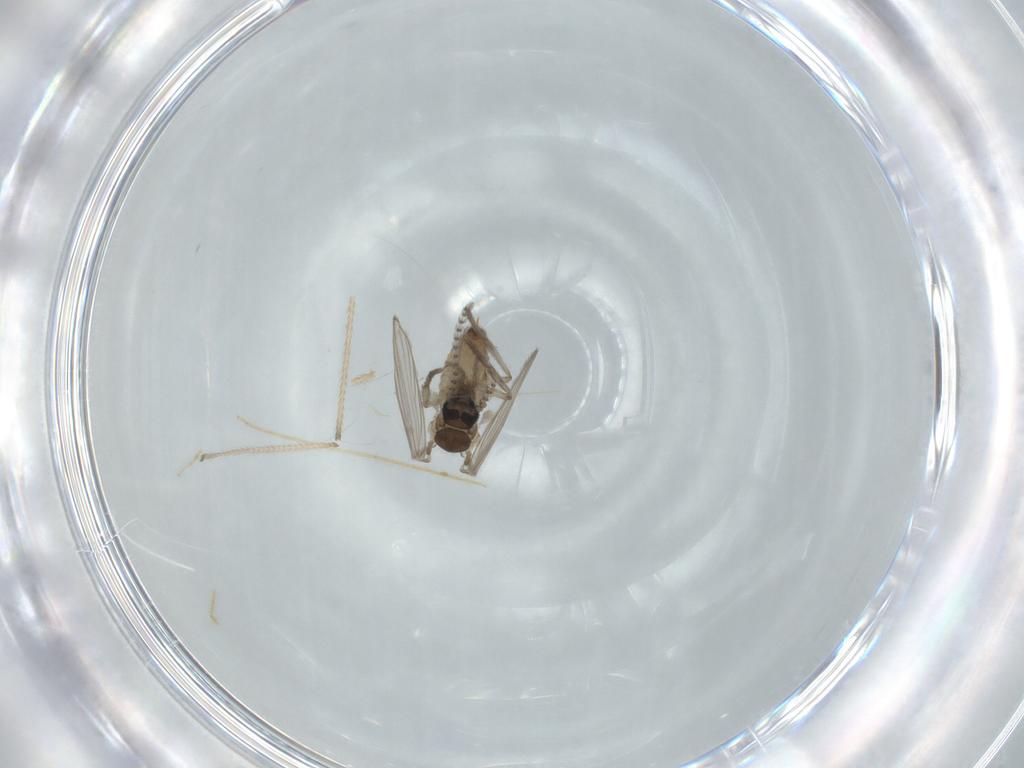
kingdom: Animalia
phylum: Arthropoda
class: Insecta
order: Diptera
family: Psychodidae
